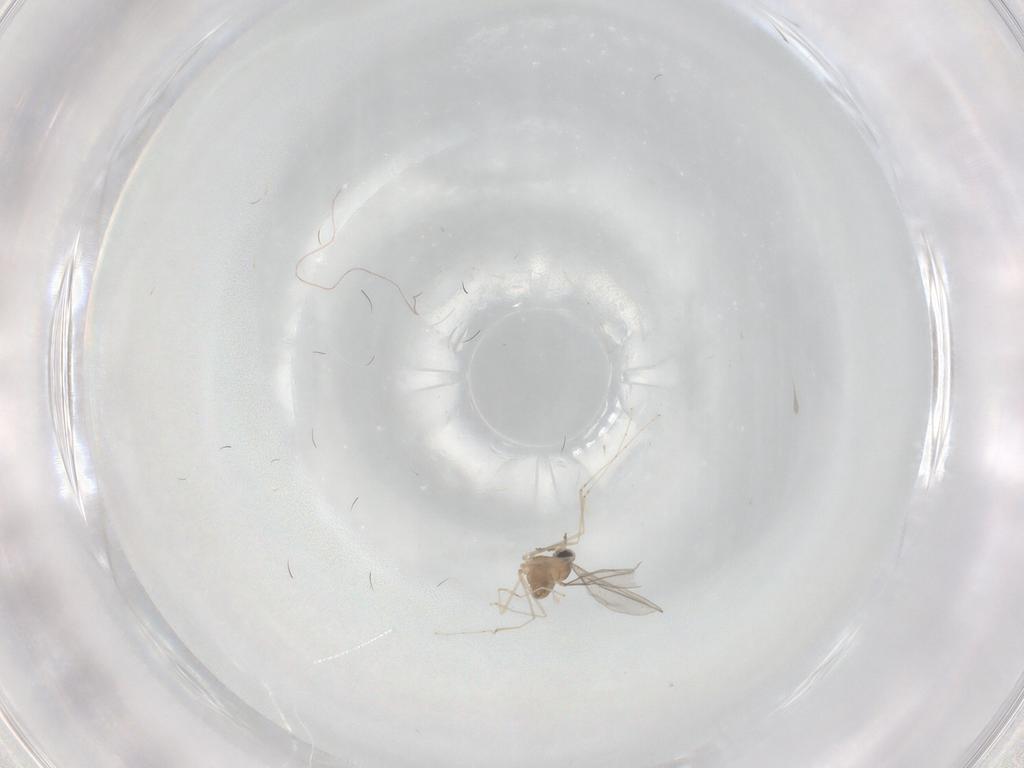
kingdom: Animalia
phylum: Arthropoda
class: Insecta
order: Diptera
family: Cecidomyiidae
